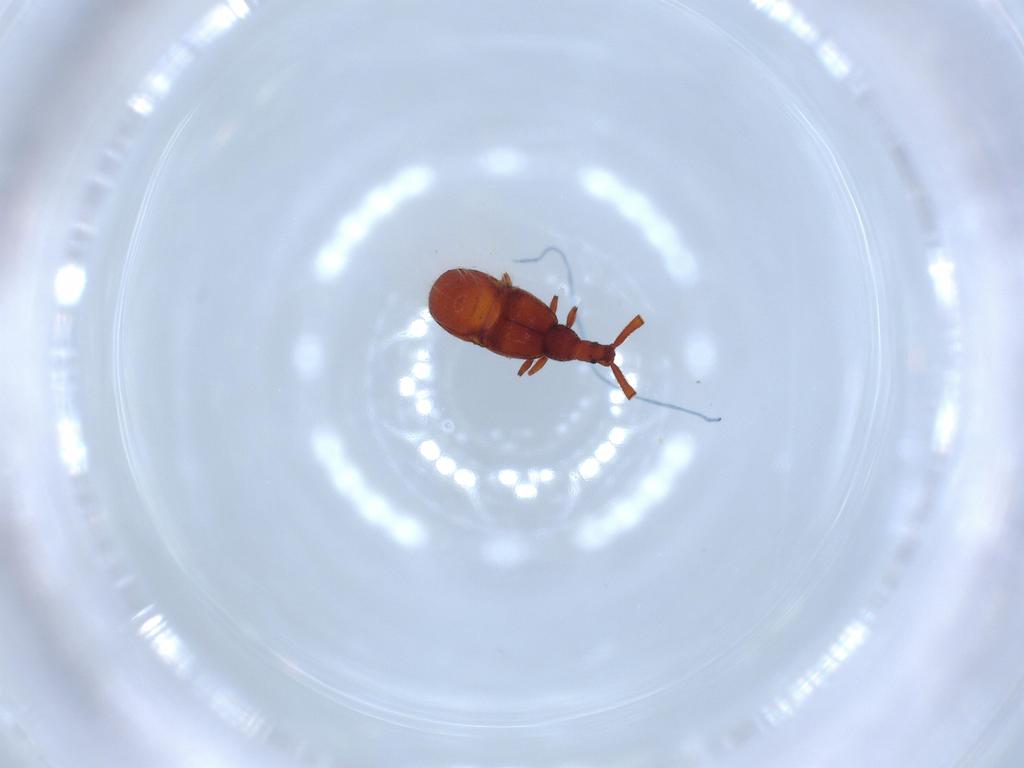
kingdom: Animalia
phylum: Arthropoda
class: Insecta
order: Coleoptera
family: Staphylinidae
